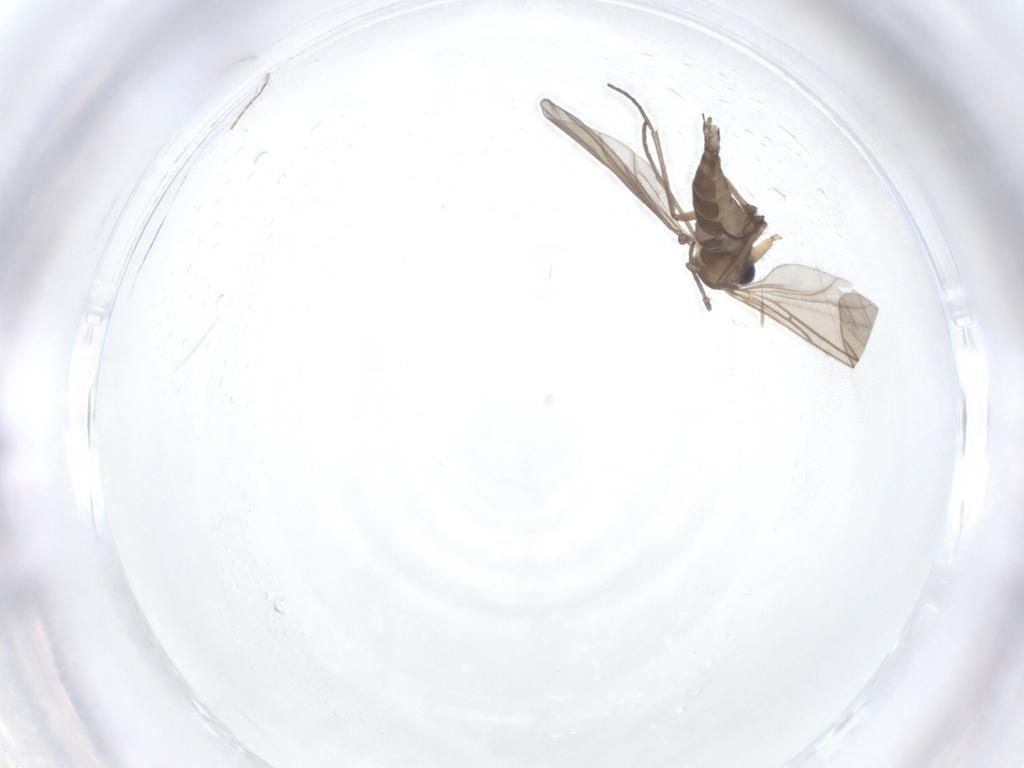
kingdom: Animalia
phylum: Arthropoda
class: Insecta
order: Diptera
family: Sciaridae
